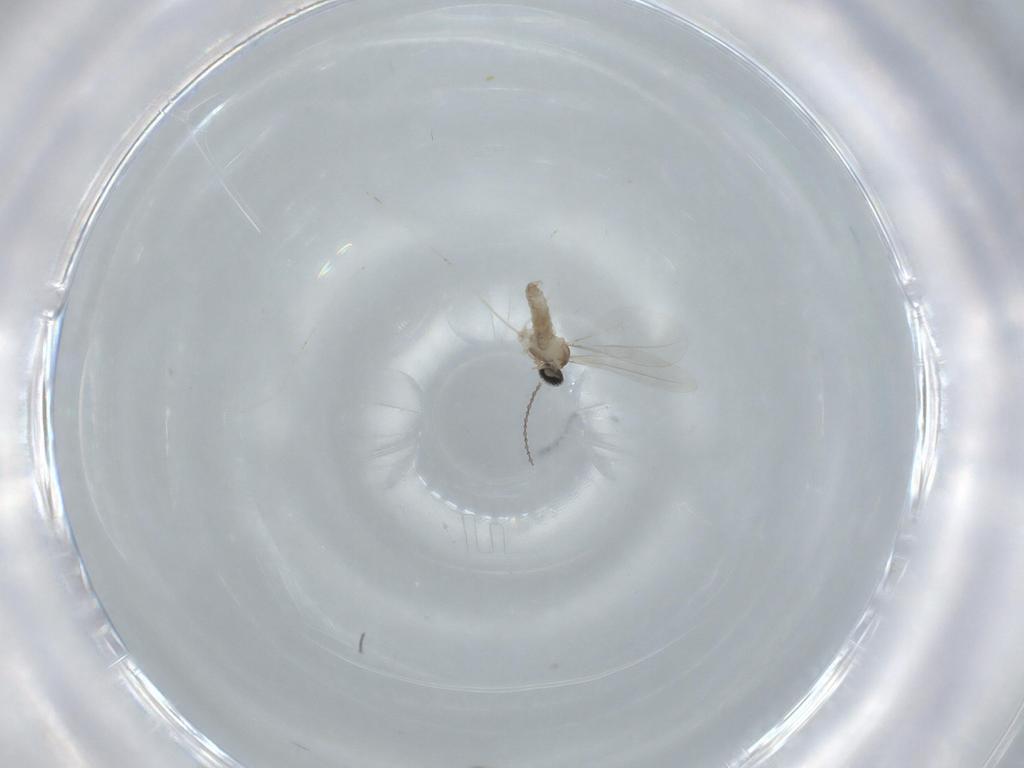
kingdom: Animalia
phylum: Arthropoda
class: Insecta
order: Diptera
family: Cecidomyiidae
